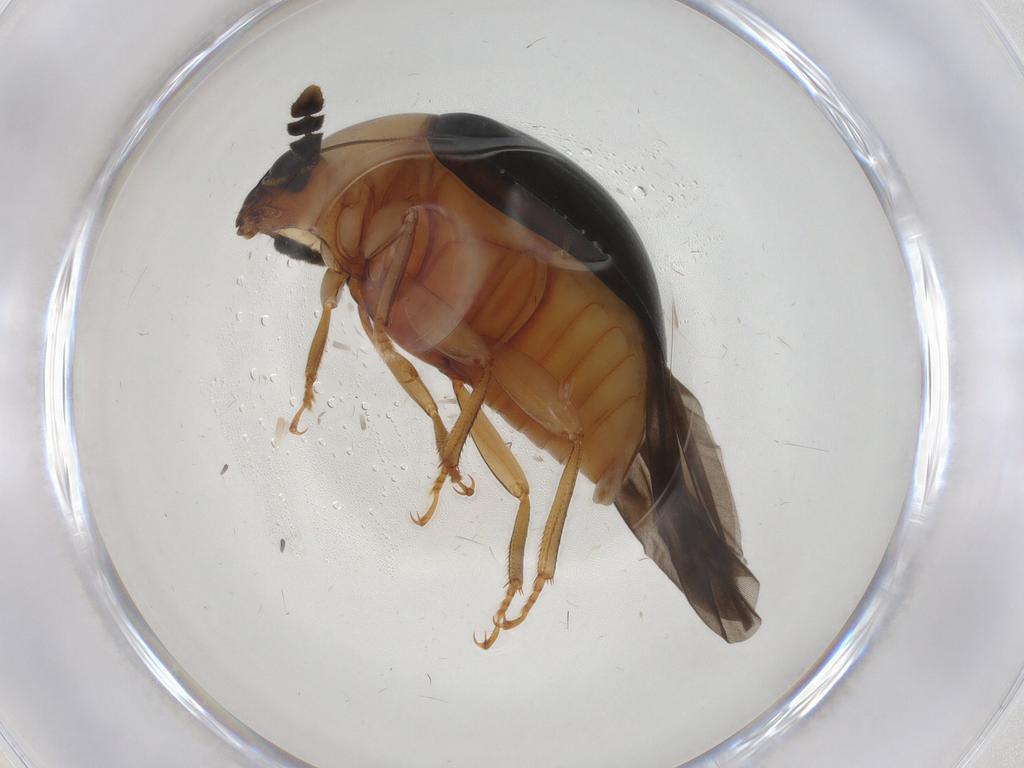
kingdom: Animalia
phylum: Arthropoda
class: Insecta
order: Coleoptera
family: Nitidulidae
